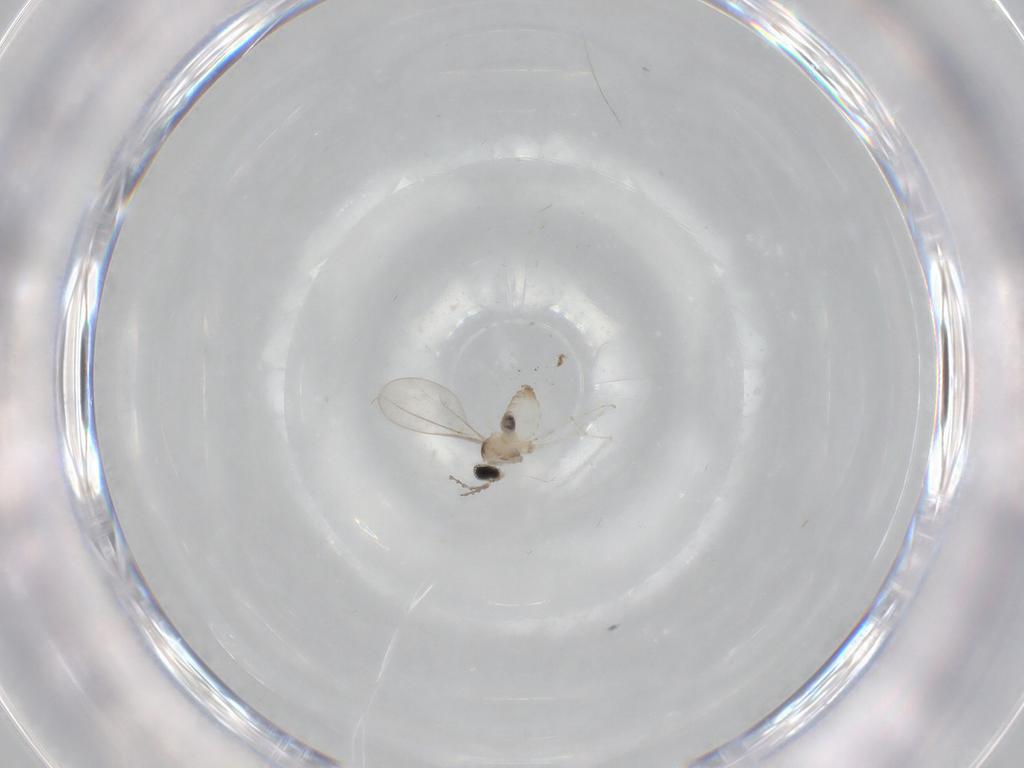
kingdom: Animalia
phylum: Arthropoda
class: Insecta
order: Diptera
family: Cecidomyiidae
